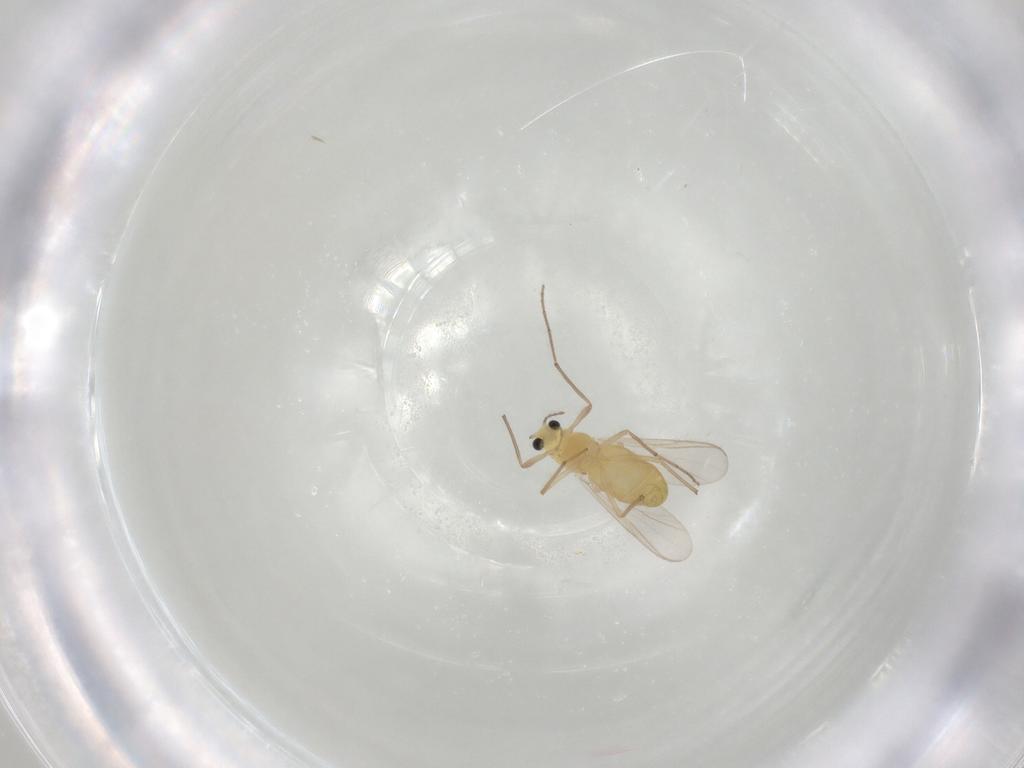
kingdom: Animalia
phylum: Arthropoda
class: Insecta
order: Diptera
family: Chironomidae
